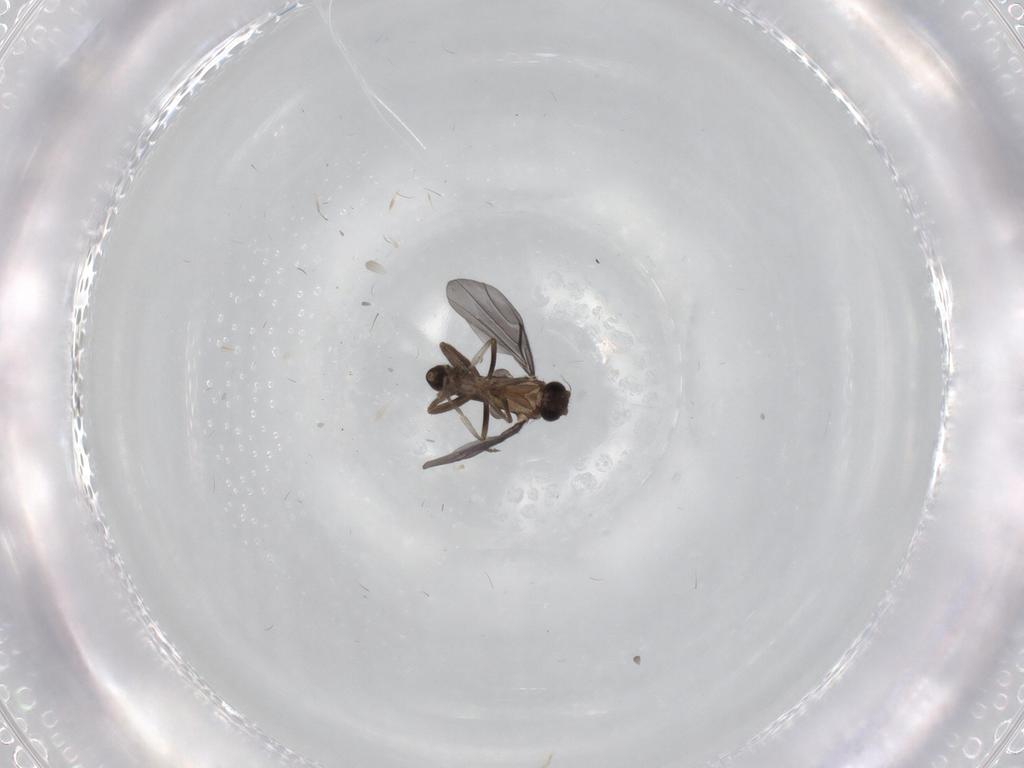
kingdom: Animalia
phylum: Arthropoda
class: Insecta
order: Diptera
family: Phoridae
